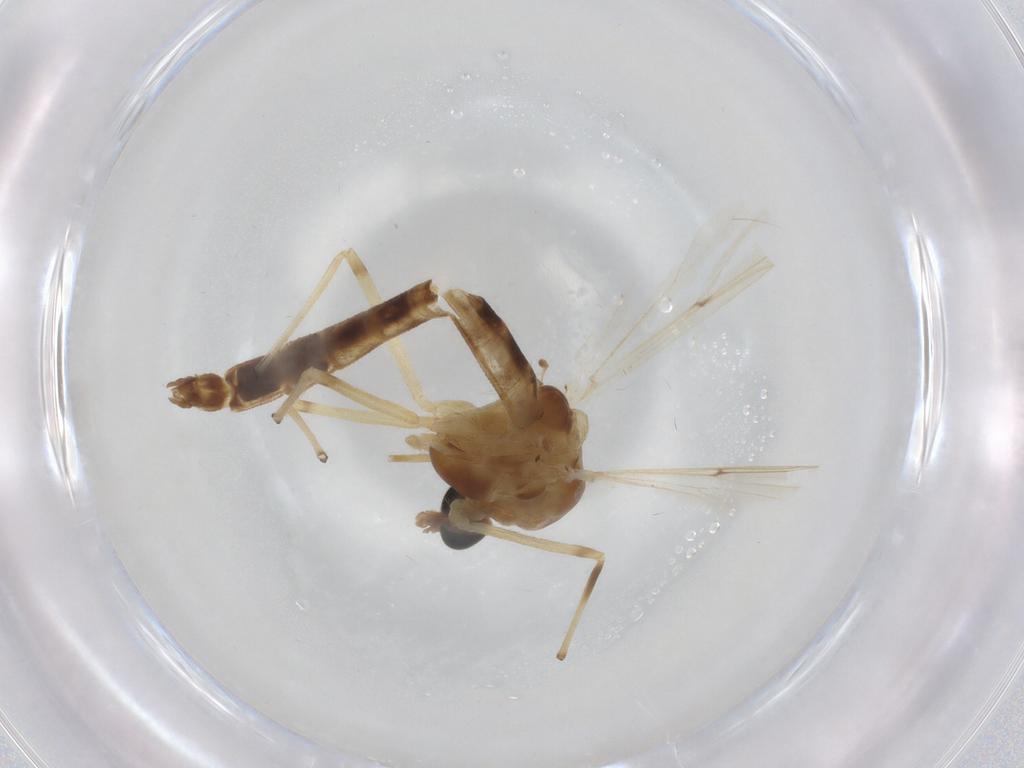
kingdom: Animalia
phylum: Arthropoda
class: Insecta
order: Diptera
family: Chironomidae
